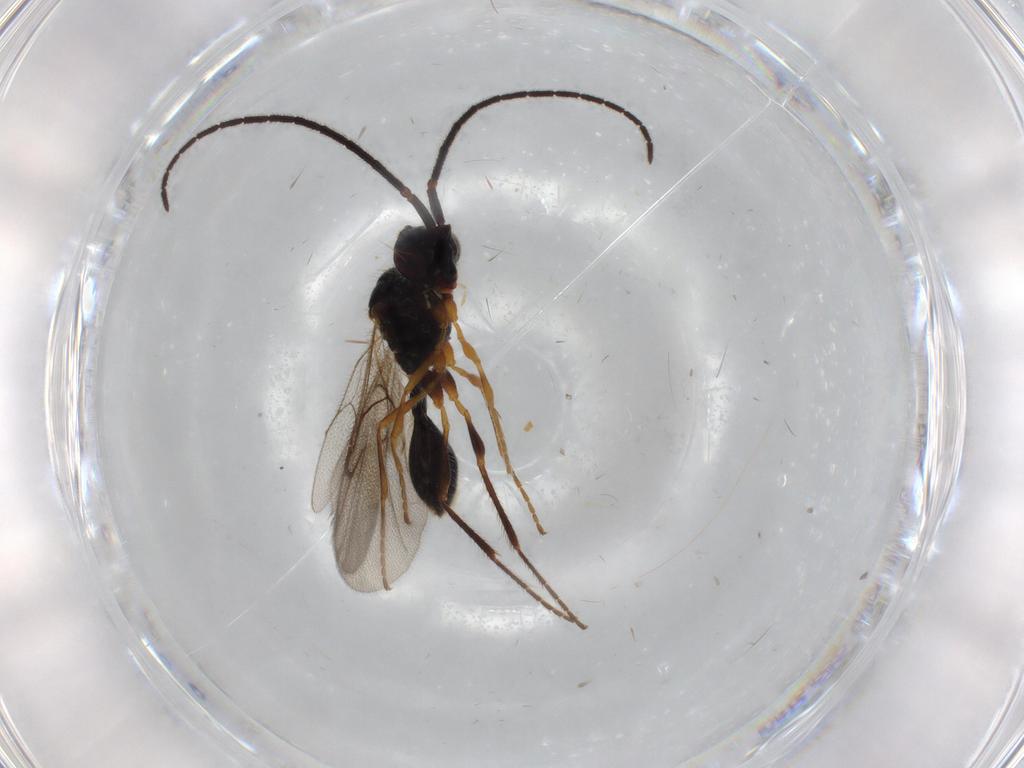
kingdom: Animalia
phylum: Arthropoda
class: Insecta
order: Hymenoptera
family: Diapriidae
